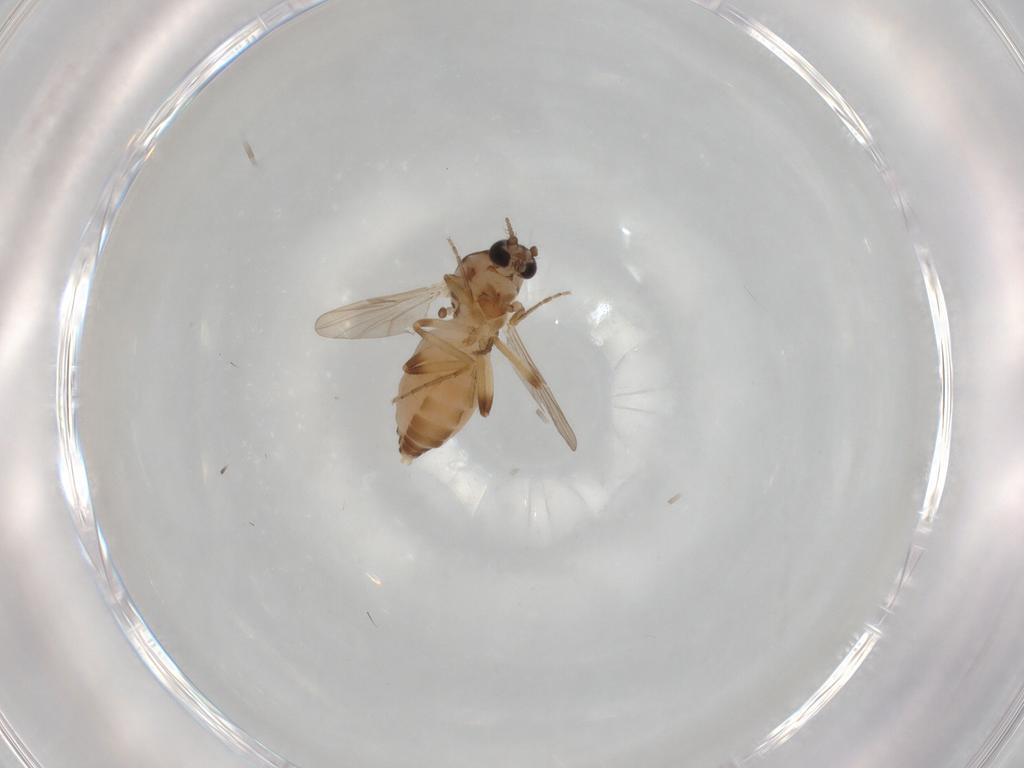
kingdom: Animalia
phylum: Arthropoda
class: Insecta
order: Diptera
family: Ceratopogonidae
